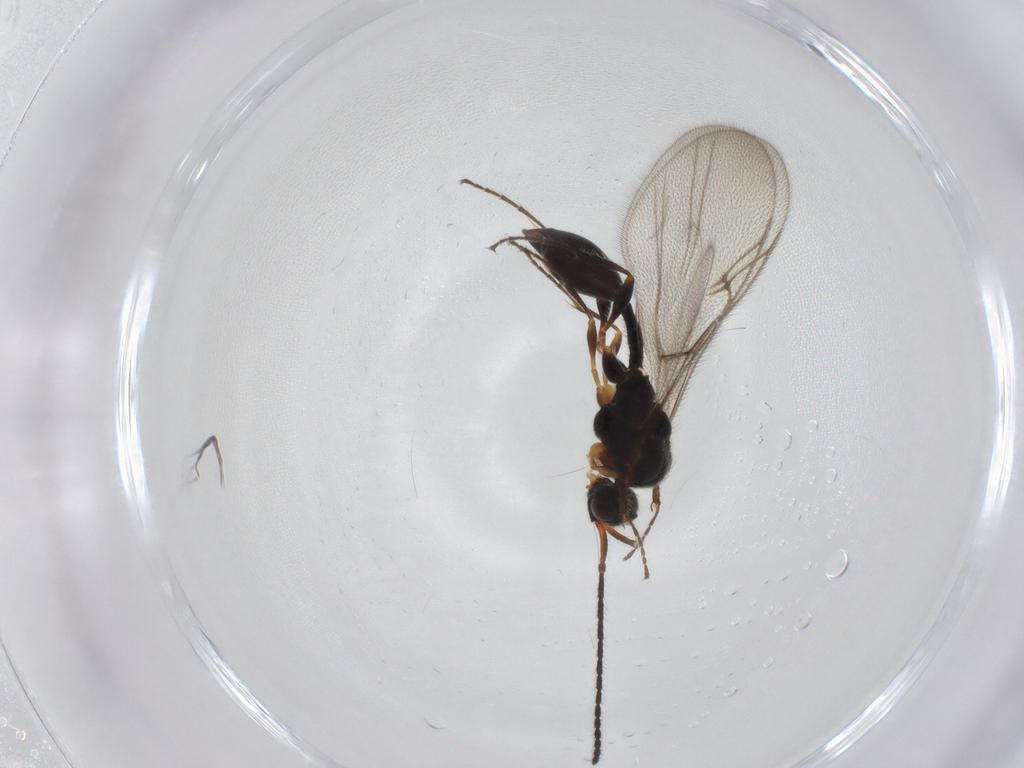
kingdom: Animalia
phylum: Arthropoda
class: Insecta
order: Hymenoptera
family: Diapriidae
